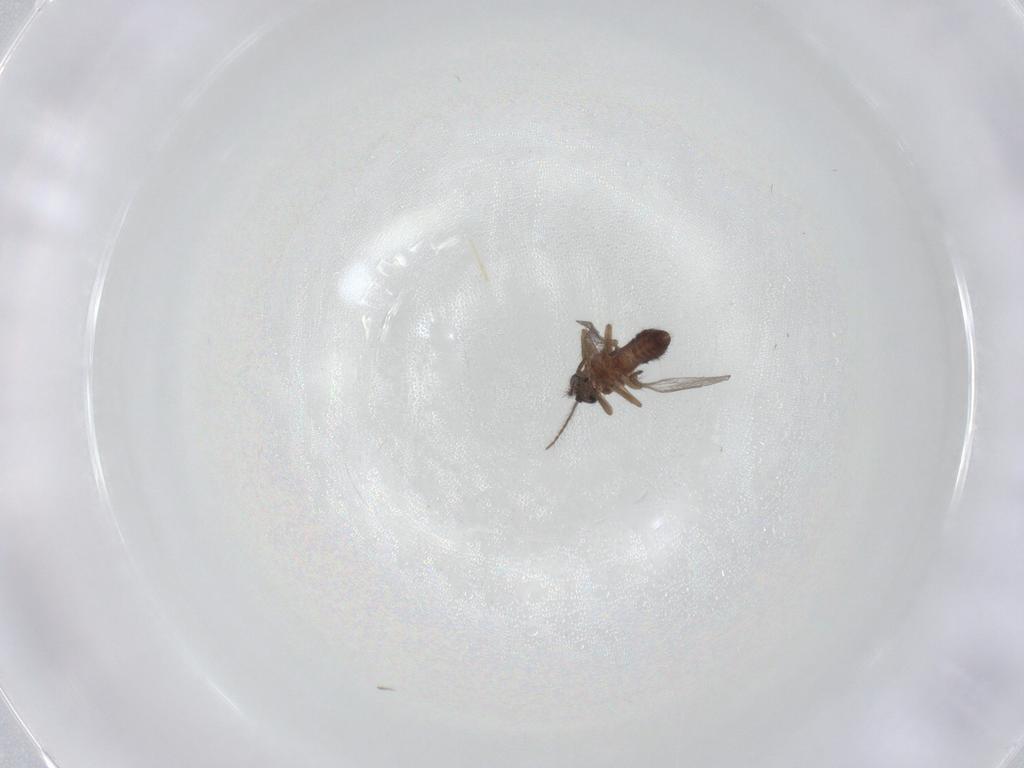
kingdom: Animalia
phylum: Arthropoda
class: Insecta
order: Diptera
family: Ceratopogonidae
